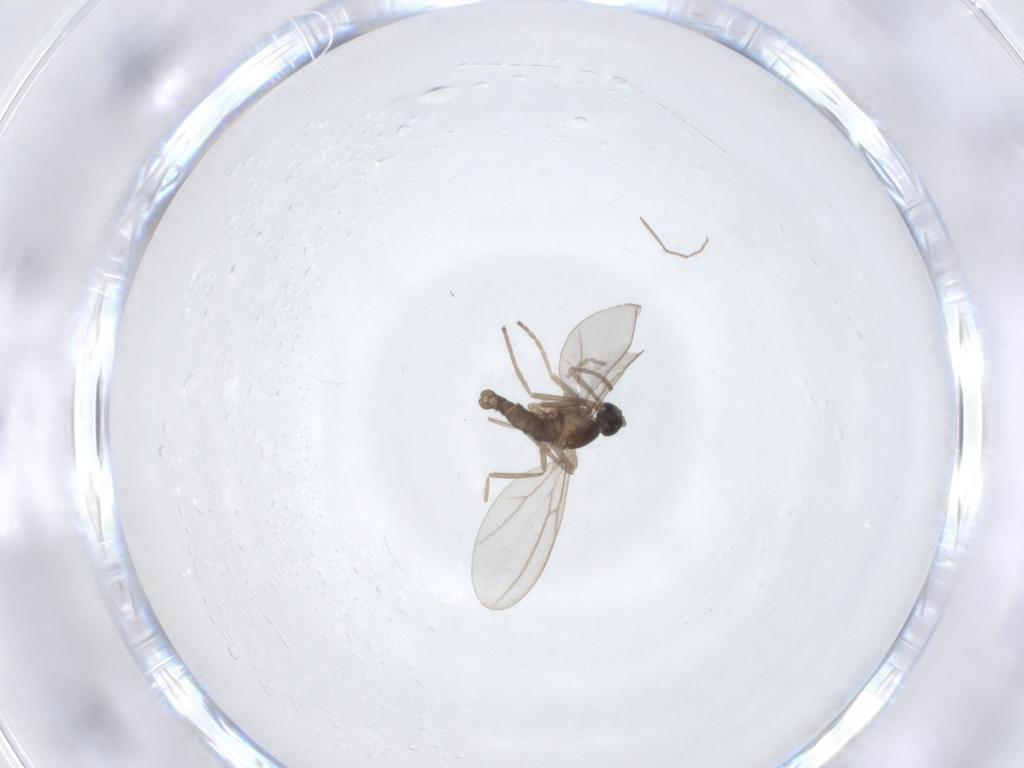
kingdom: Animalia
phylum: Arthropoda
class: Insecta
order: Diptera
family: Chironomidae
